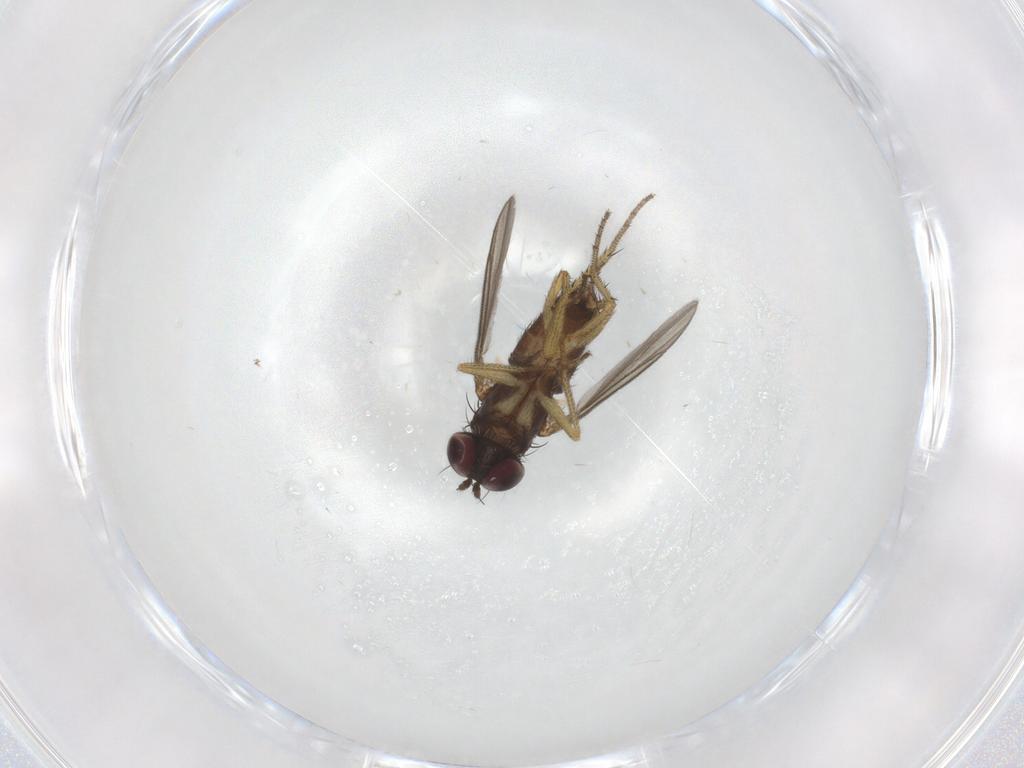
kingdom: Animalia
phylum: Arthropoda
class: Insecta
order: Diptera
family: Dolichopodidae
